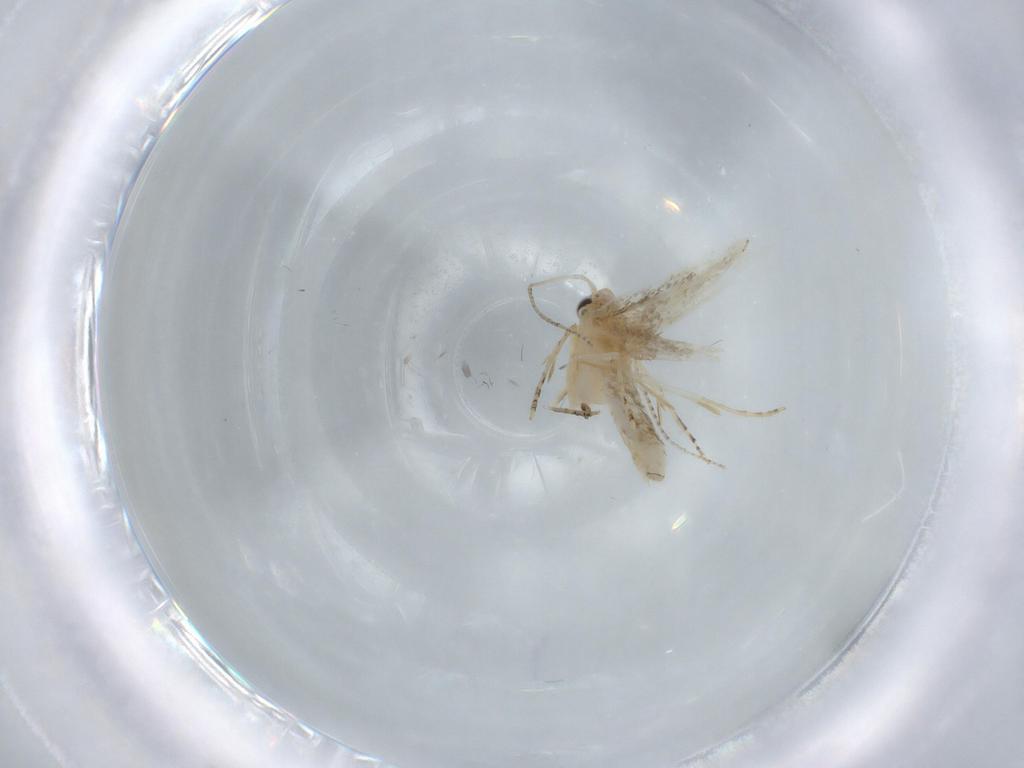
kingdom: Animalia
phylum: Arthropoda
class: Insecta
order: Lepidoptera
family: Bucculatricidae
